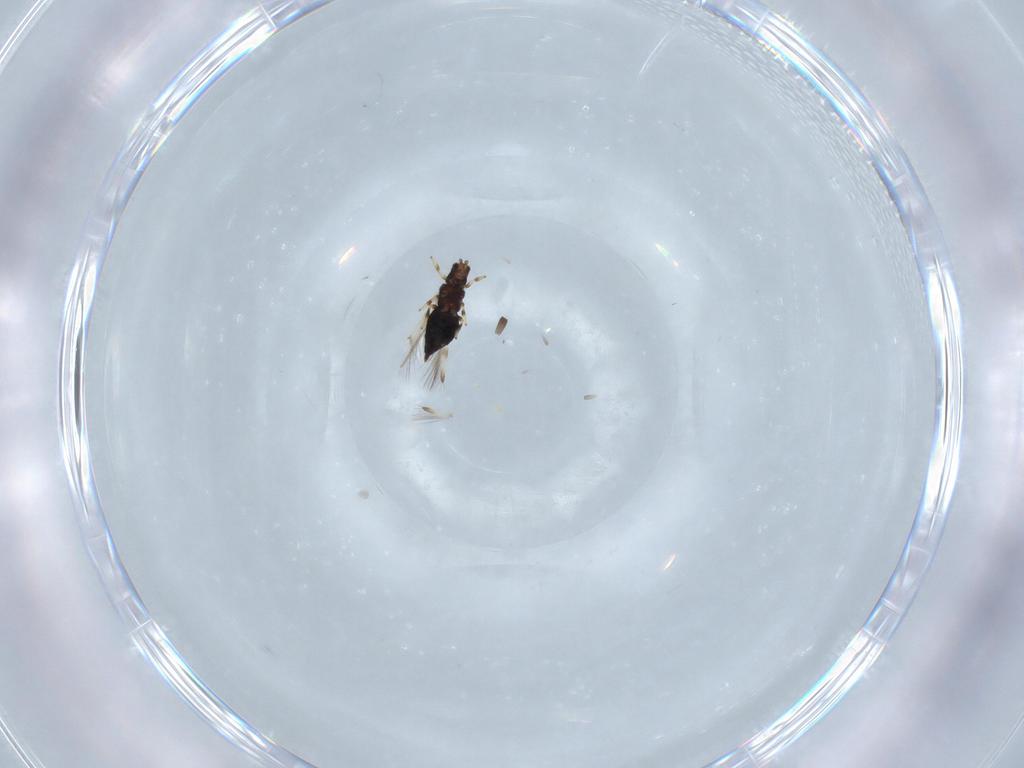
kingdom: Animalia
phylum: Arthropoda
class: Insecta
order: Thysanoptera
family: Thripidae
